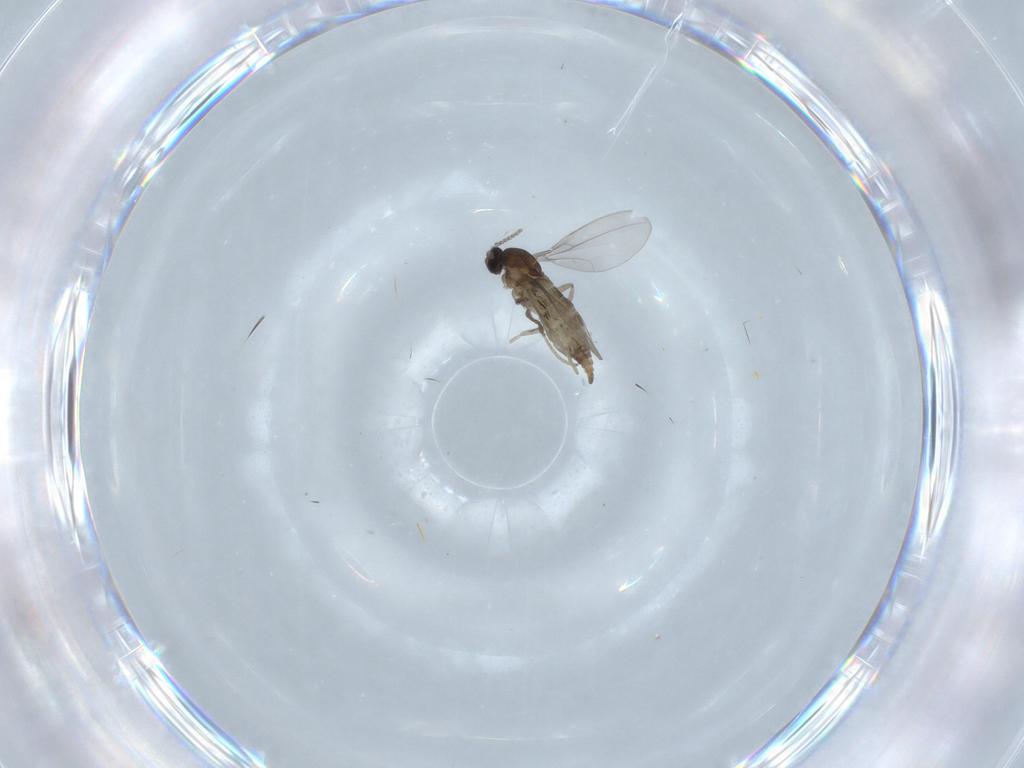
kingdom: Animalia
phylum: Arthropoda
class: Insecta
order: Diptera
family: Cecidomyiidae
